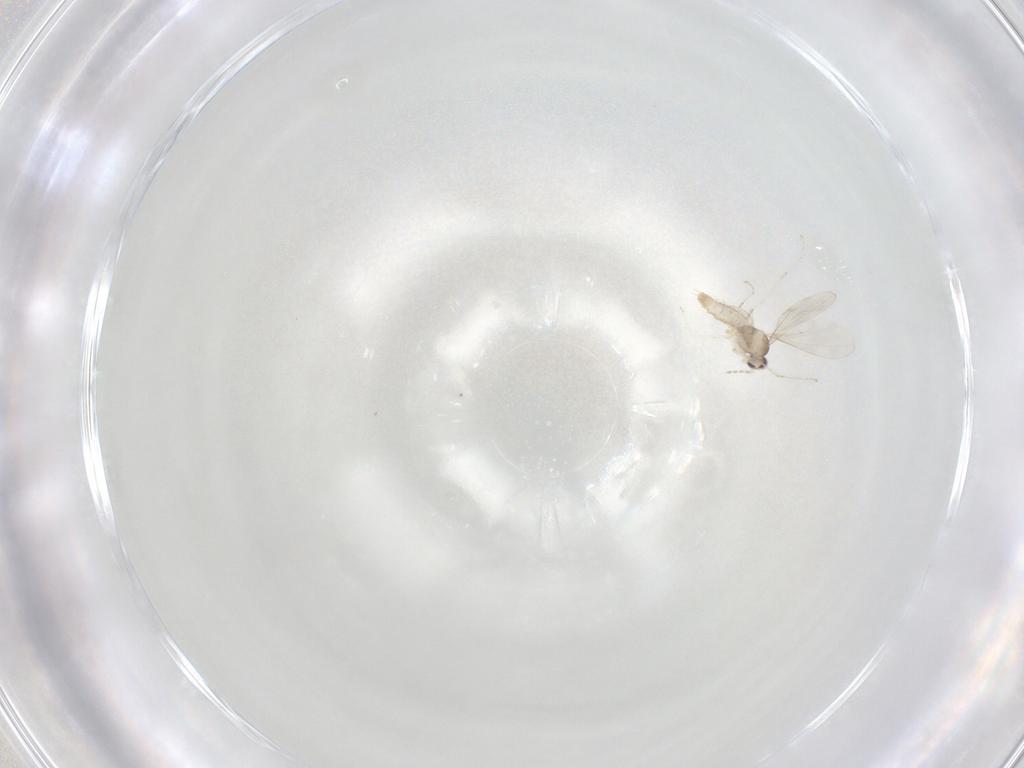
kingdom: Animalia
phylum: Arthropoda
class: Insecta
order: Diptera
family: Cecidomyiidae
